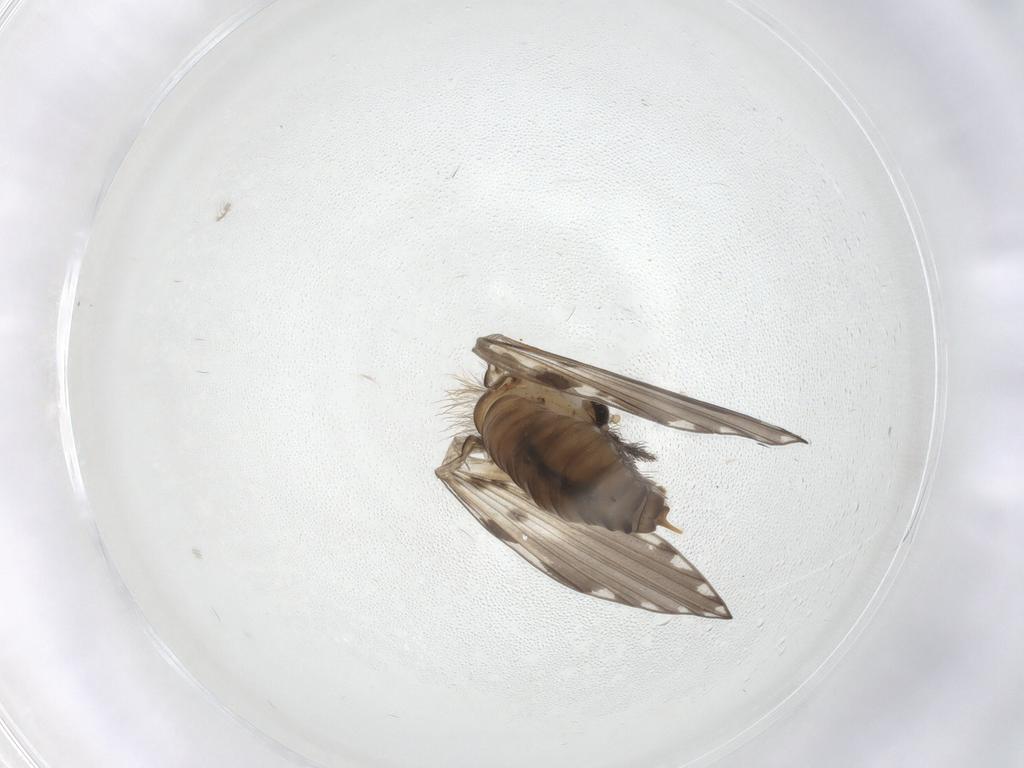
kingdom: Animalia
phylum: Arthropoda
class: Insecta
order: Diptera
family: Psychodidae
